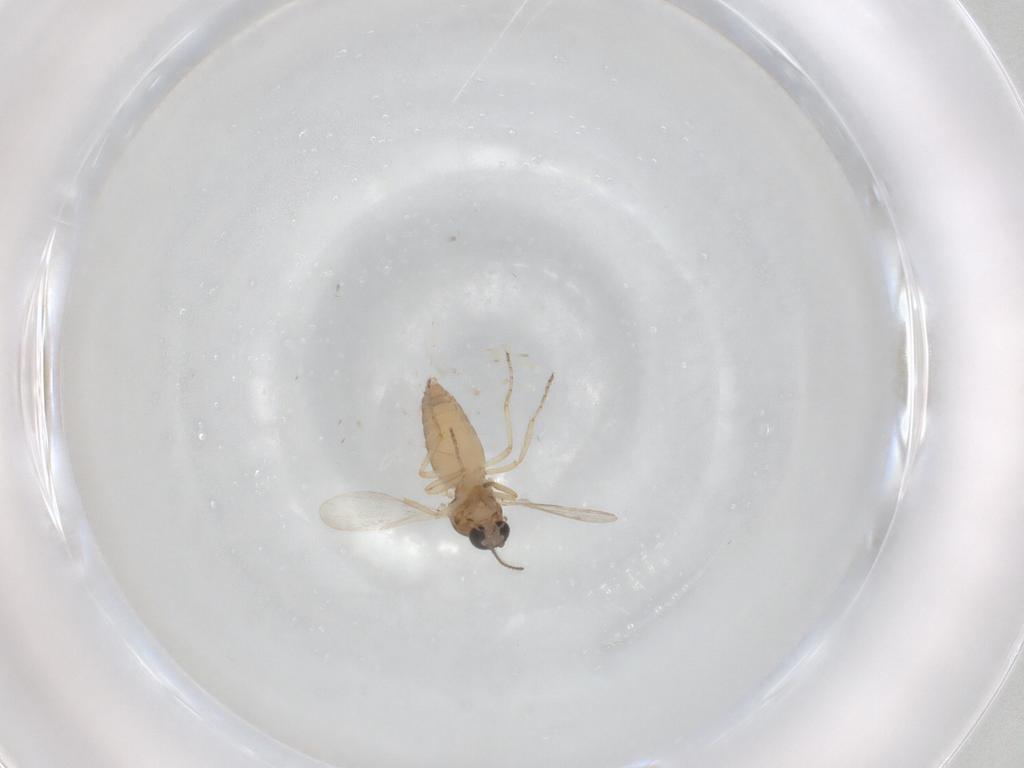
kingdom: Animalia
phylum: Arthropoda
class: Insecta
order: Diptera
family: Ceratopogonidae
